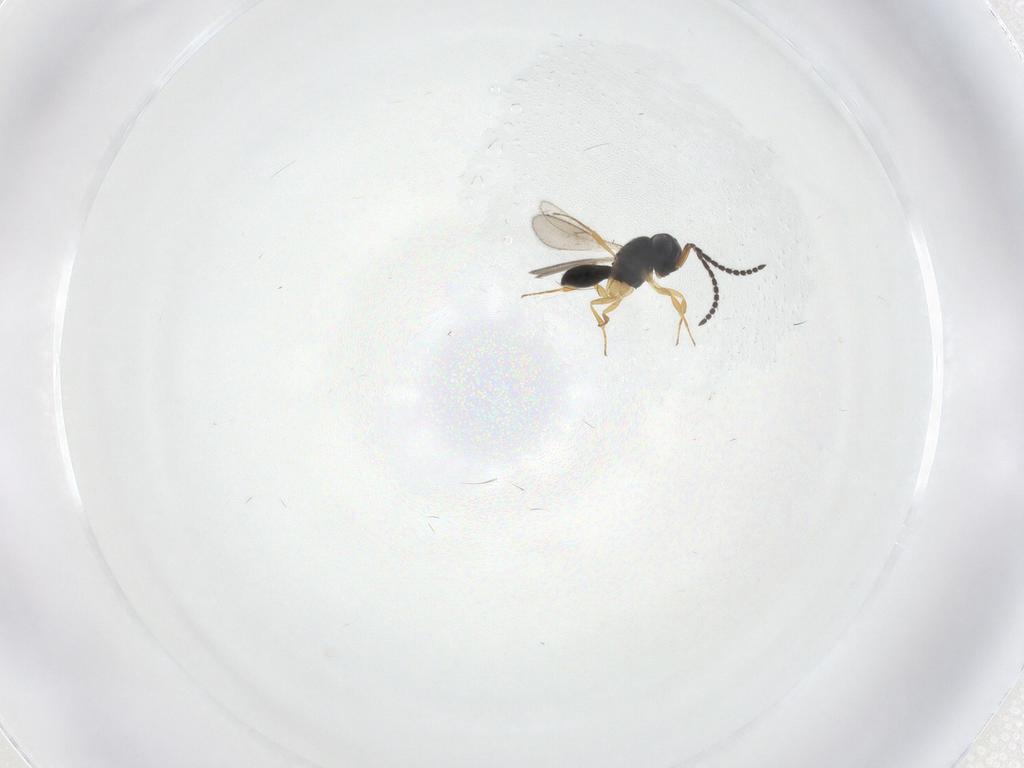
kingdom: Animalia
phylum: Arthropoda
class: Insecta
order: Hymenoptera
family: Scelionidae
